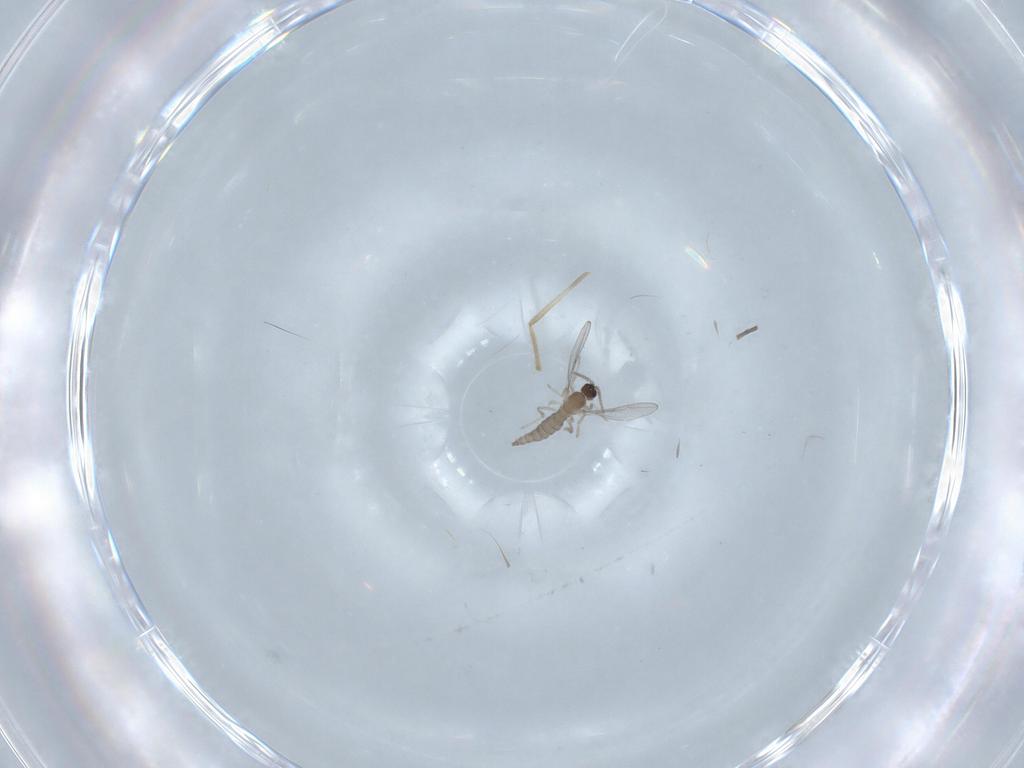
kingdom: Animalia
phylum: Arthropoda
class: Insecta
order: Diptera
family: Cecidomyiidae
